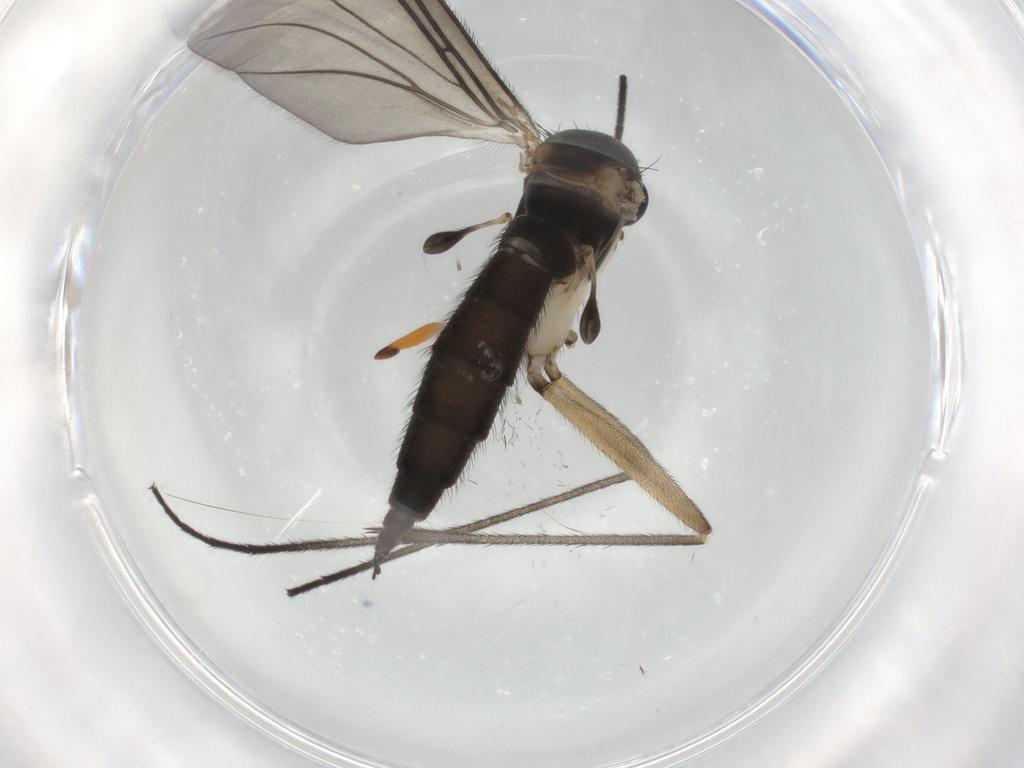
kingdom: Animalia
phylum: Arthropoda
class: Insecta
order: Diptera
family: Sciaridae
